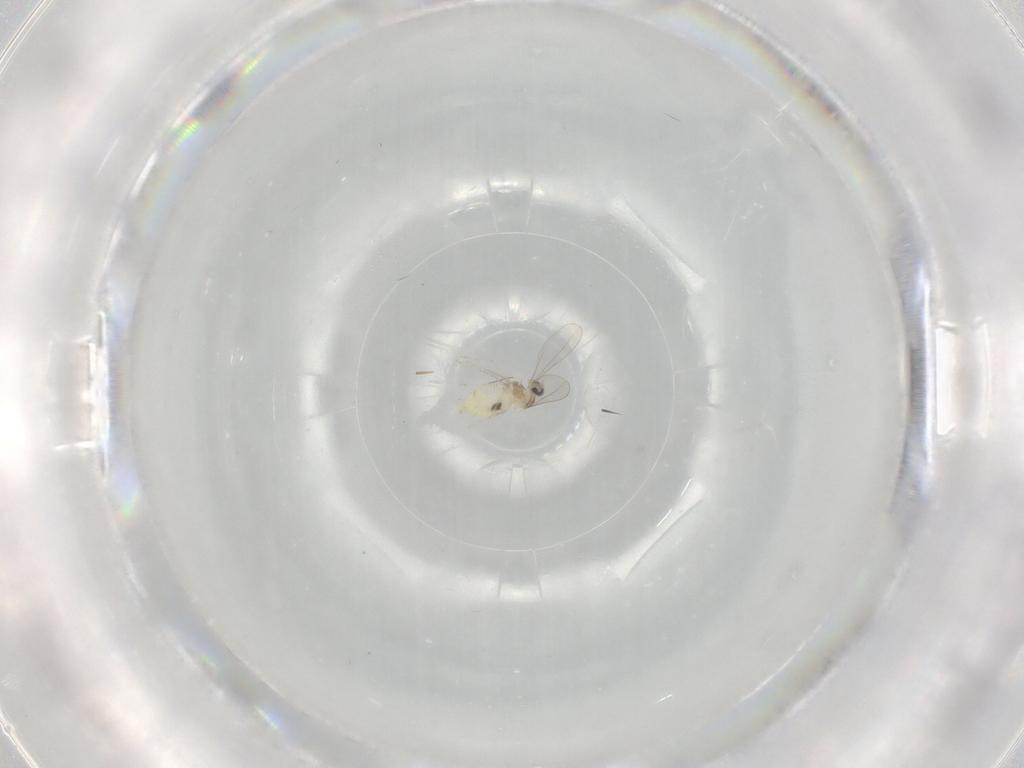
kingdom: Animalia
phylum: Arthropoda
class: Insecta
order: Diptera
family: Cecidomyiidae
